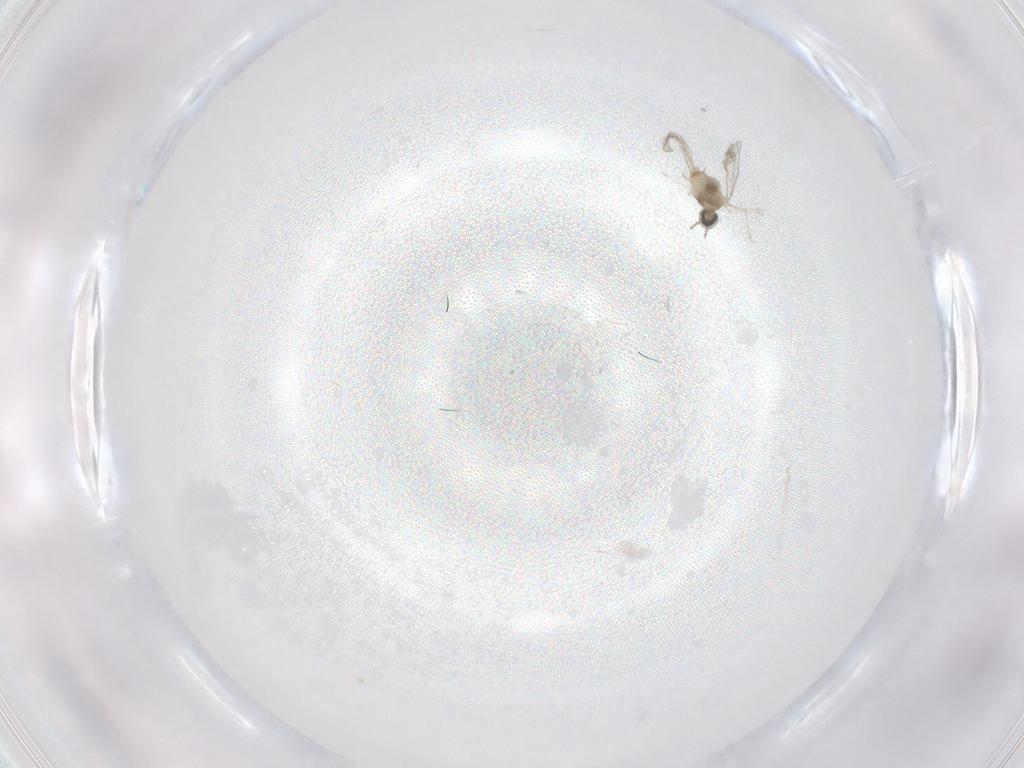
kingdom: Animalia
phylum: Arthropoda
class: Insecta
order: Diptera
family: Cecidomyiidae
